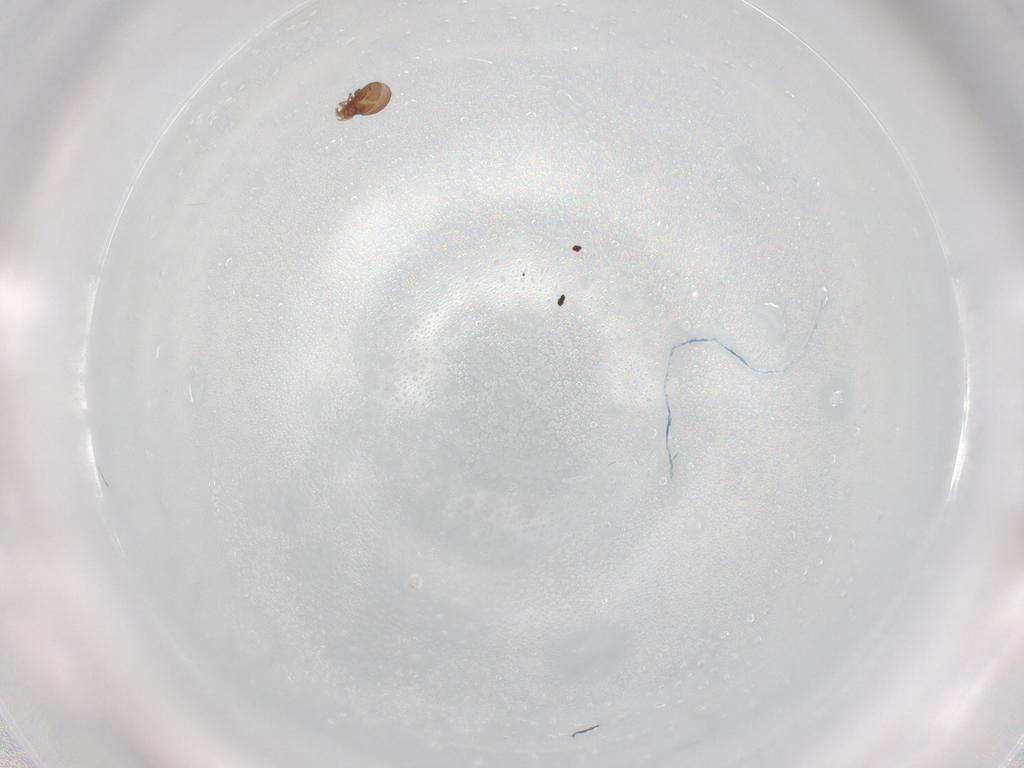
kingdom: Animalia
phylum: Arthropoda
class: Arachnida
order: Sarcoptiformes
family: Oribatulidae
